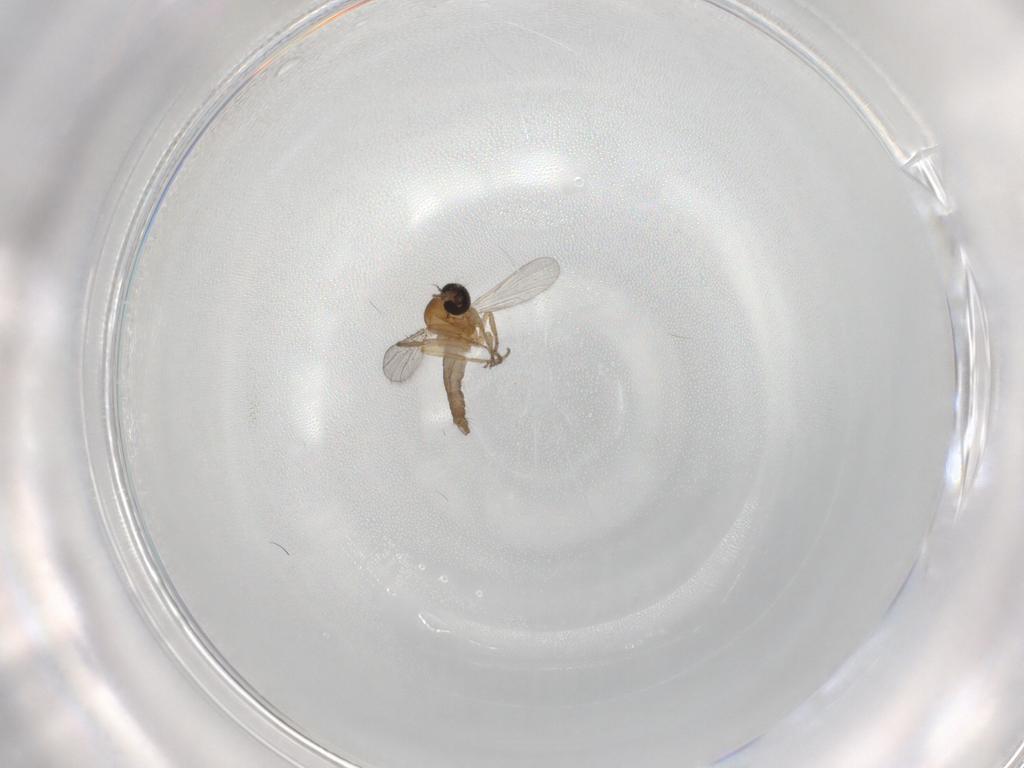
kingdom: Animalia
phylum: Arthropoda
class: Insecta
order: Diptera
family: Ceratopogonidae
